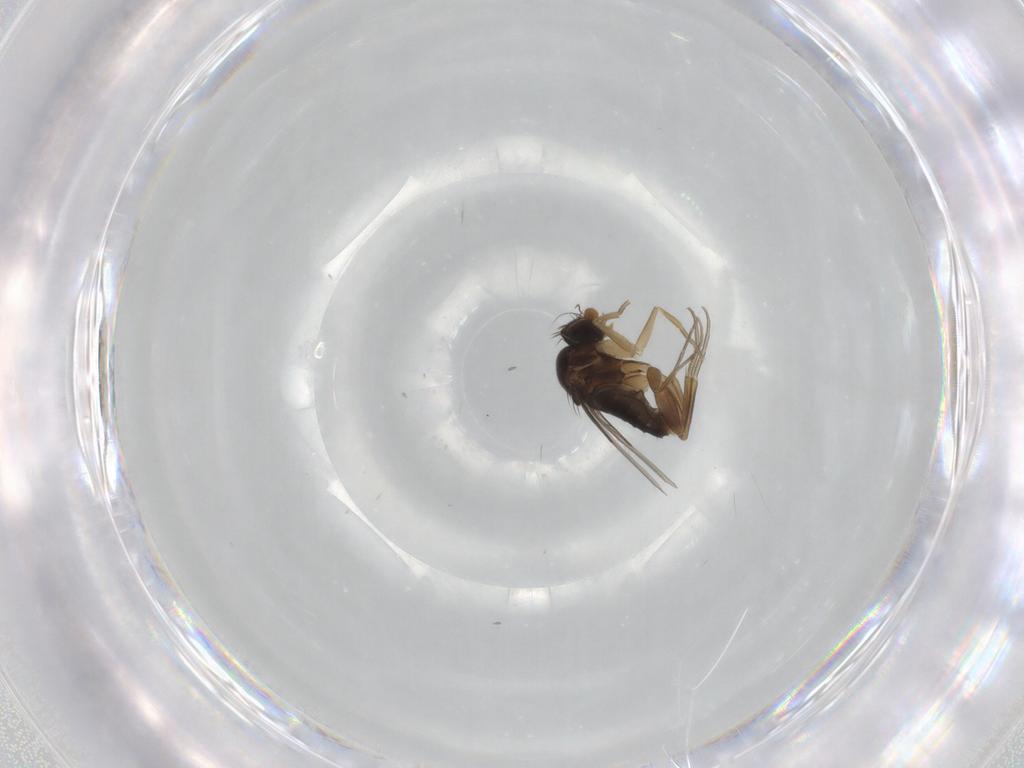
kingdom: Animalia
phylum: Arthropoda
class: Insecta
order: Diptera
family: Phoridae
